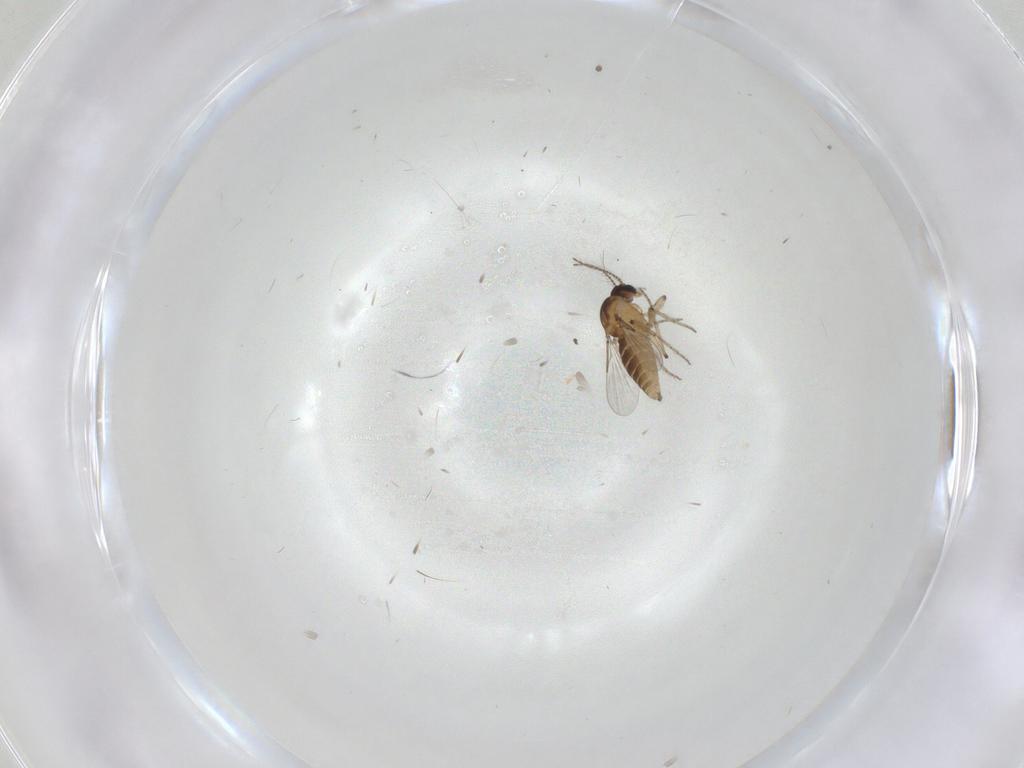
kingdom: Animalia
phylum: Arthropoda
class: Insecta
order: Diptera
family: Ceratopogonidae
